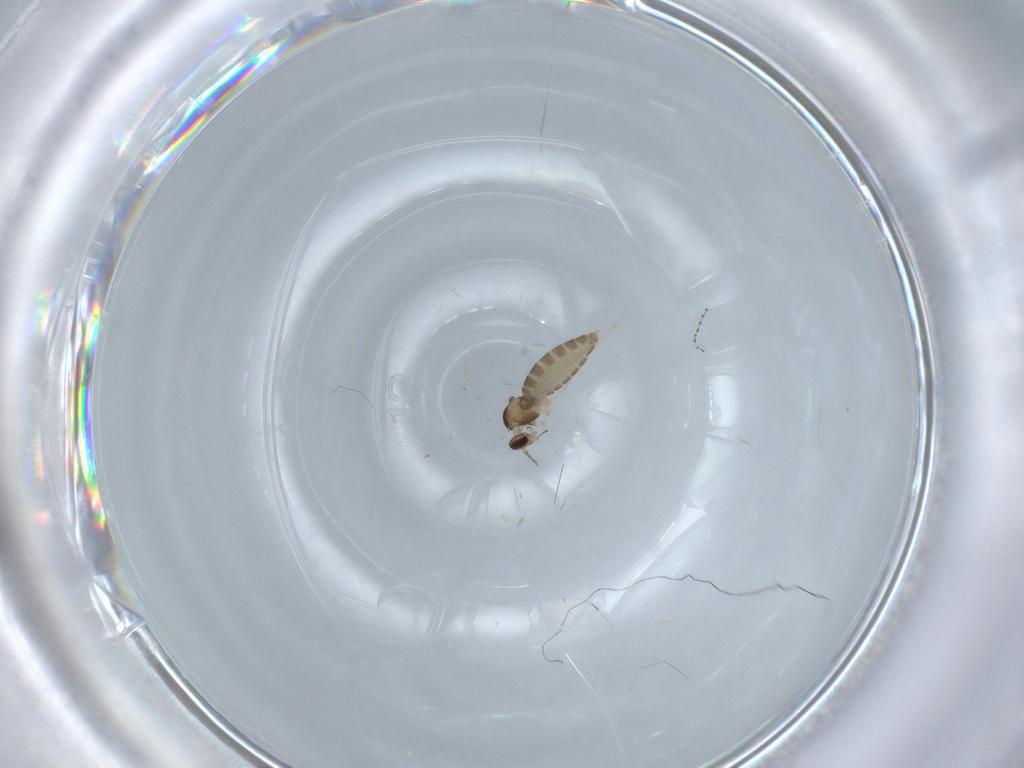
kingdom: Animalia
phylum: Arthropoda
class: Insecta
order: Diptera
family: Cecidomyiidae
